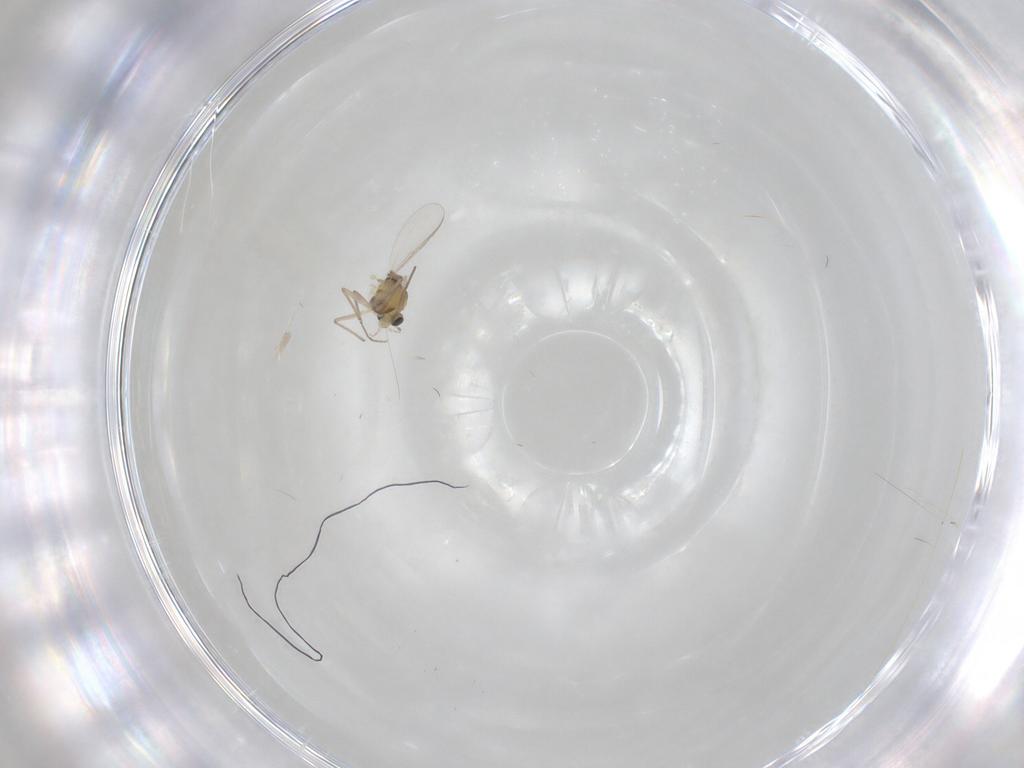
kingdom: Animalia
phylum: Arthropoda
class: Insecta
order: Diptera
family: Chironomidae
